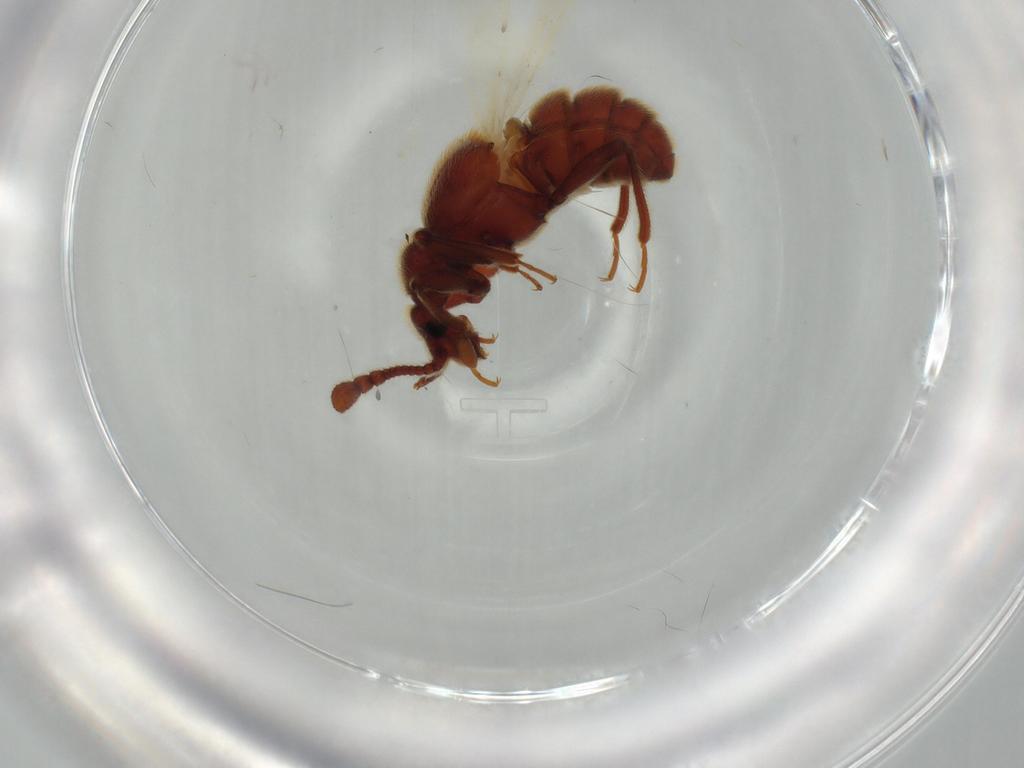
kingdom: Animalia
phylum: Arthropoda
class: Insecta
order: Coleoptera
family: Staphylinidae
